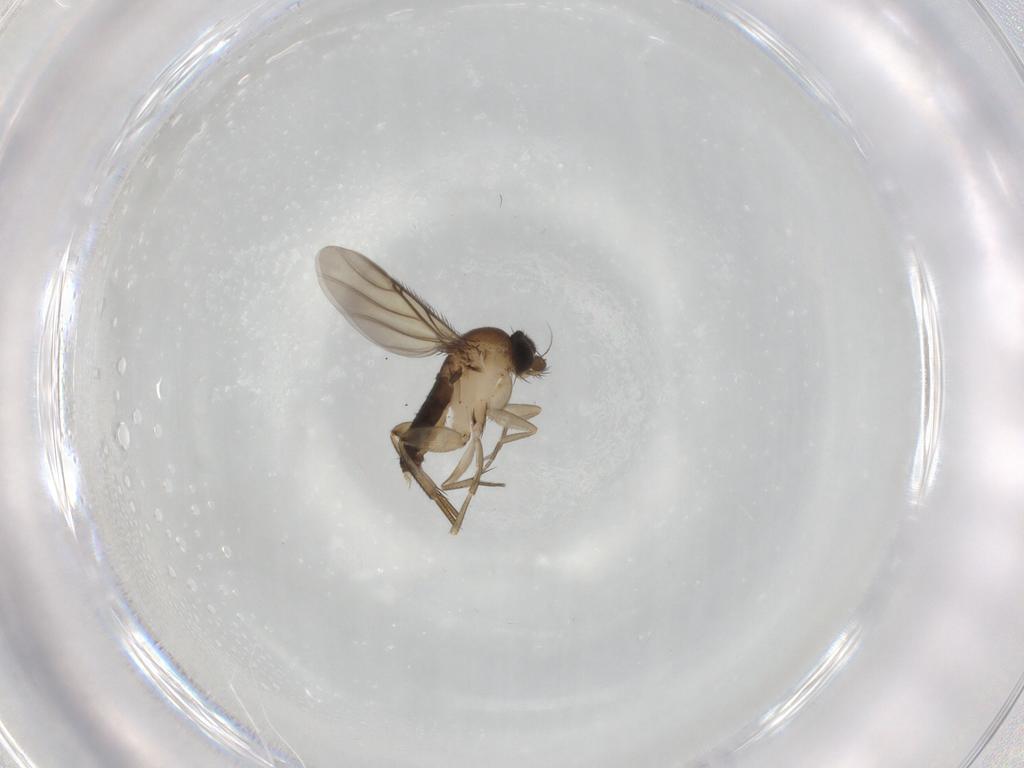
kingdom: Animalia
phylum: Arthropoda
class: Insecta
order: Diptera
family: Phoridae
